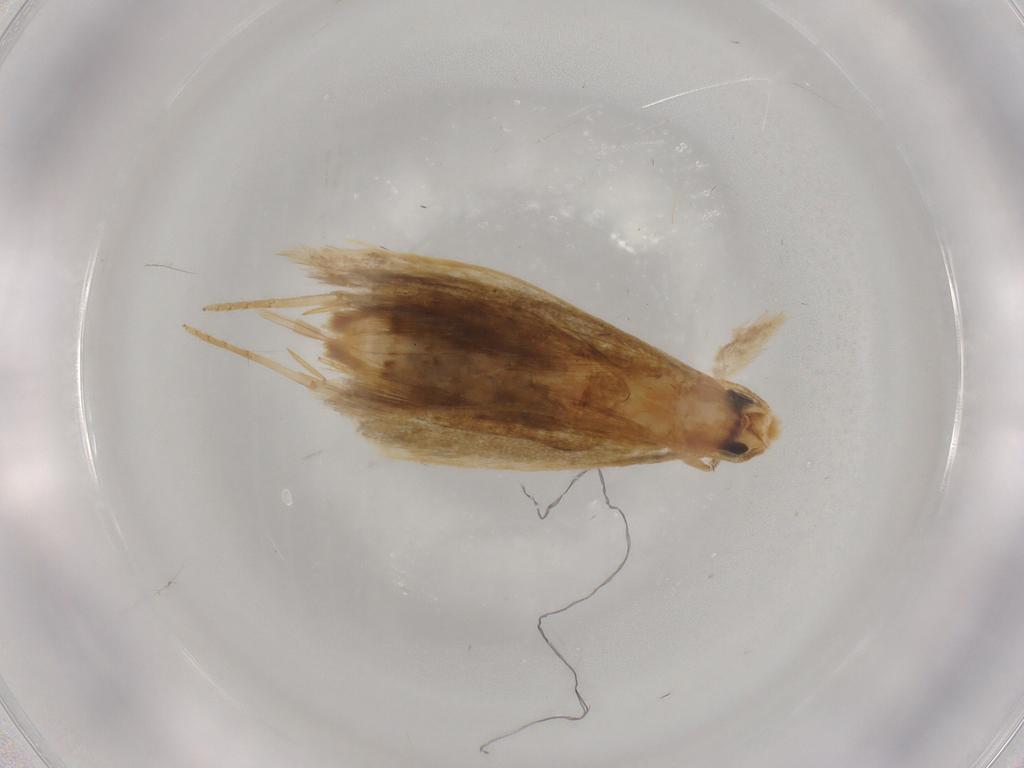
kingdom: Animalia
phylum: Arthropoda
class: Insecta
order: Lepidoptera
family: Tineidae
